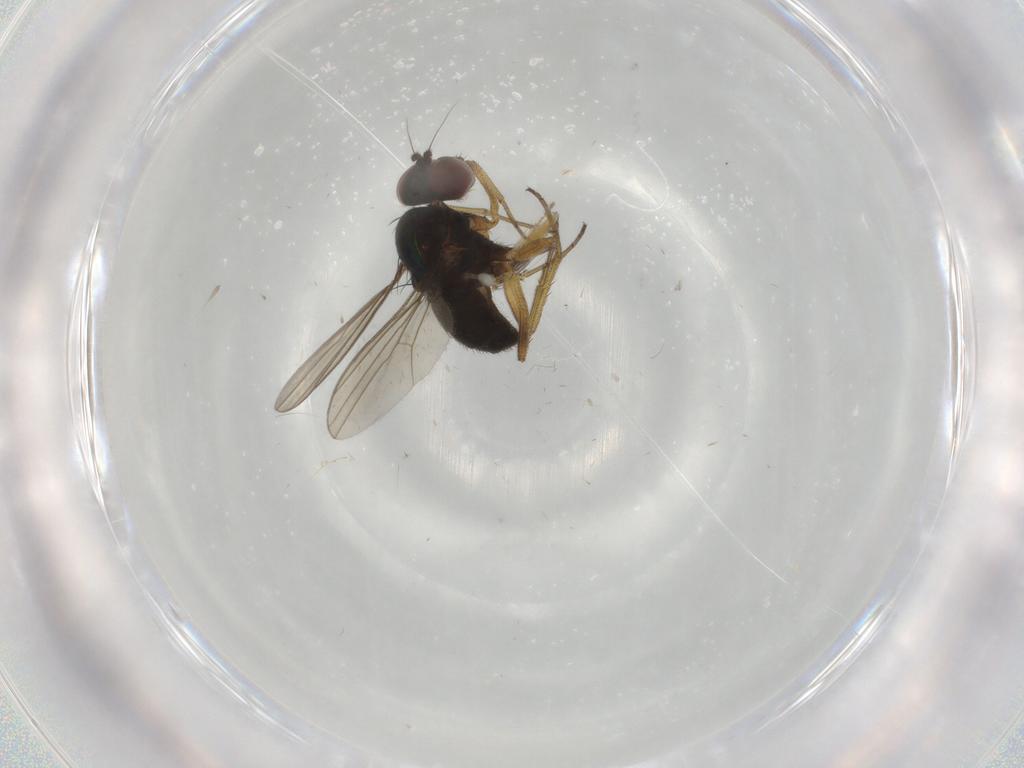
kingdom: Animalia
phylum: Arthropoda
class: Insecta
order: Diptera
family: Dolichopodidae
